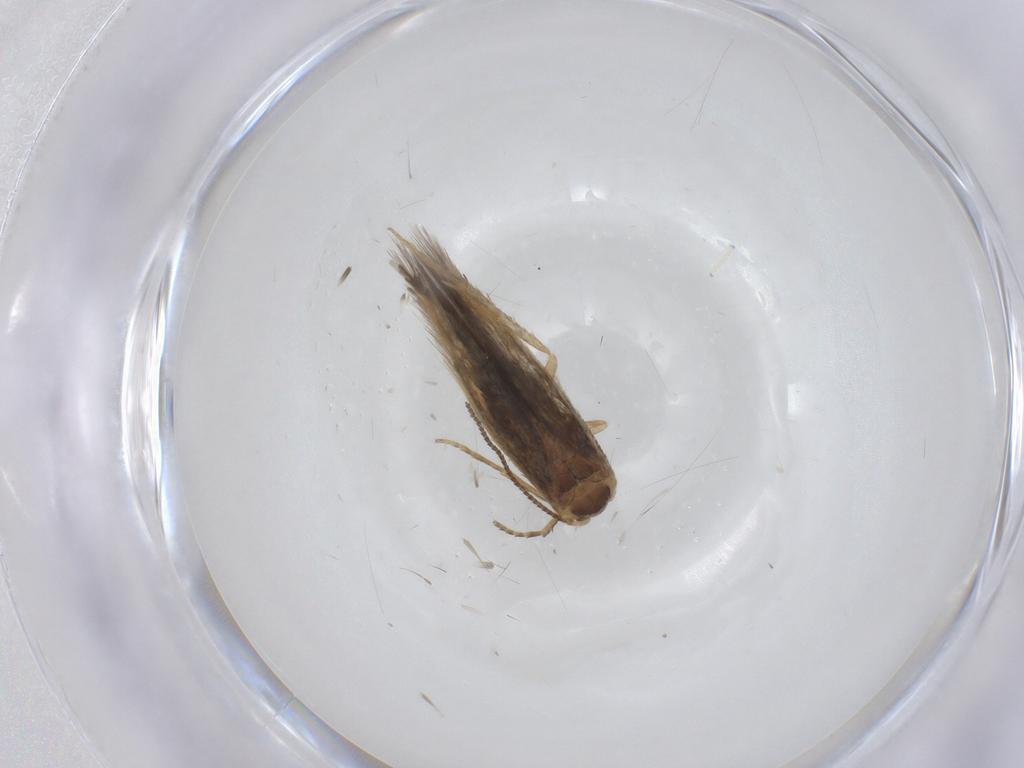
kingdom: Animalia
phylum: Arthropoda
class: Insecta
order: Lepidoptera
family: Nepticulidae
